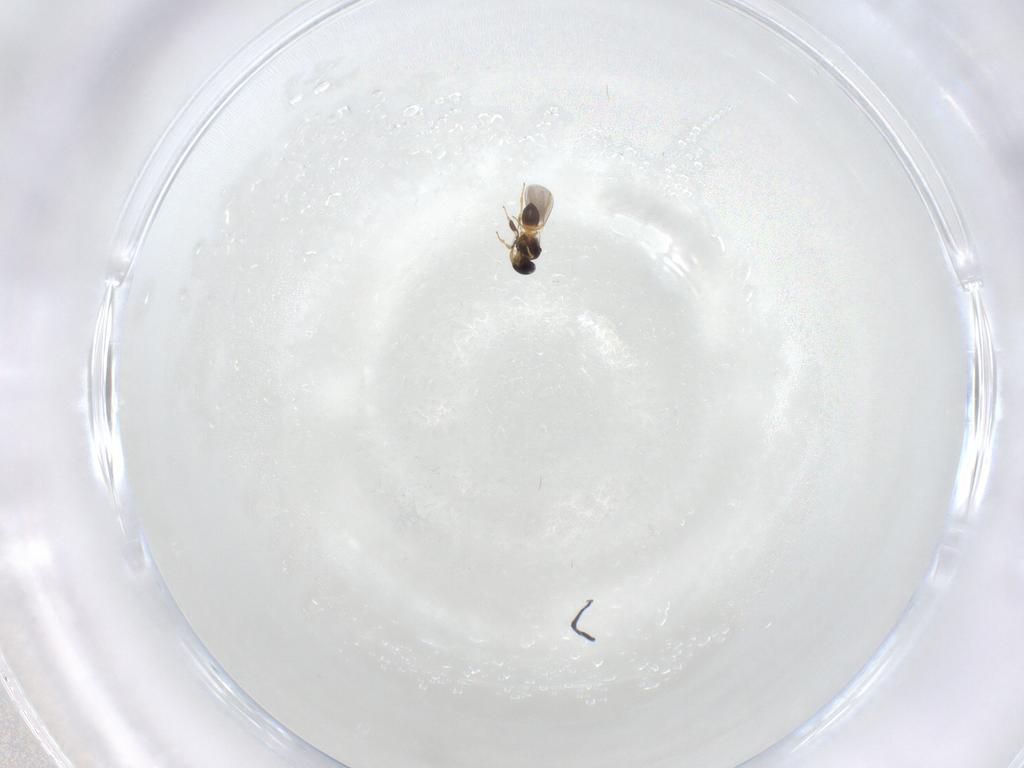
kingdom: Animalia
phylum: Arthropoda
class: Insecta
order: Hymenoptera
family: Platygastridae
